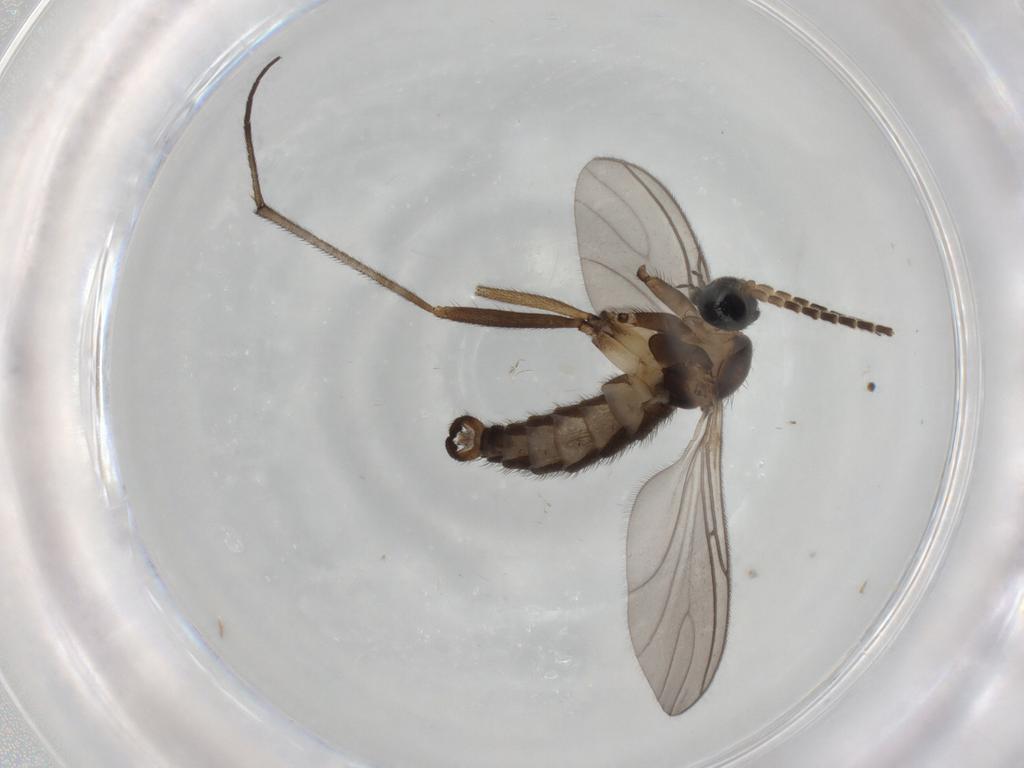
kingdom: Animalia
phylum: Arthropoda
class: Insecta
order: Diptera
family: Sciaridae
